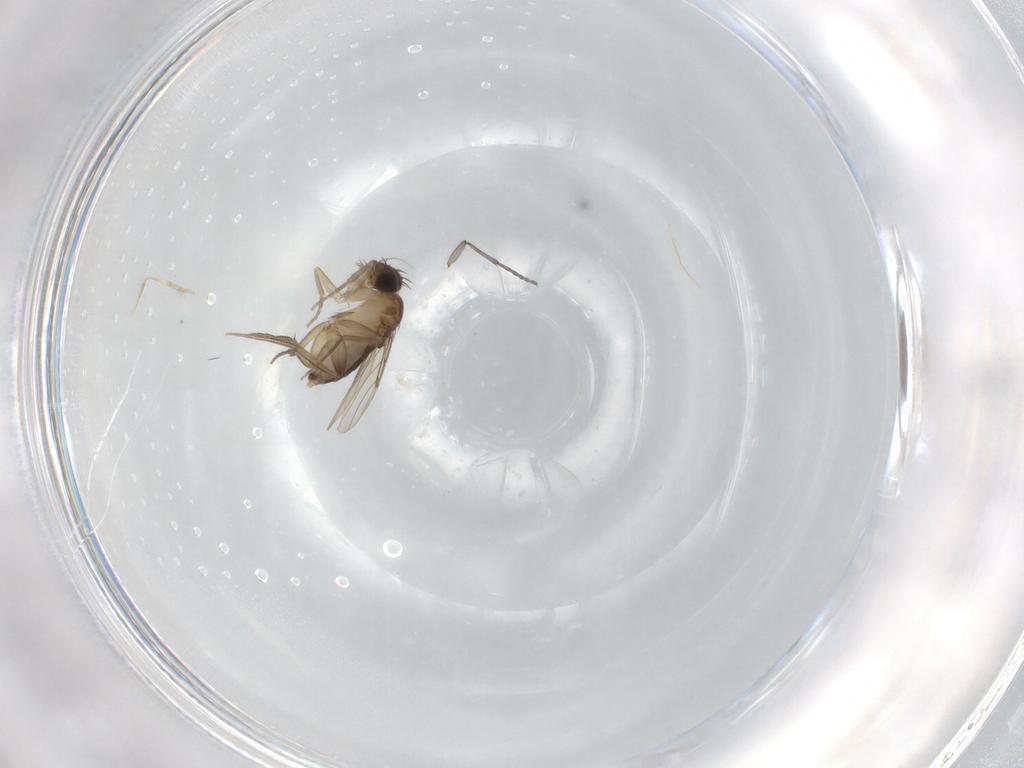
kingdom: Animalia
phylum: Arthropoda
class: Insecta
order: Diptera
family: Phoridae
